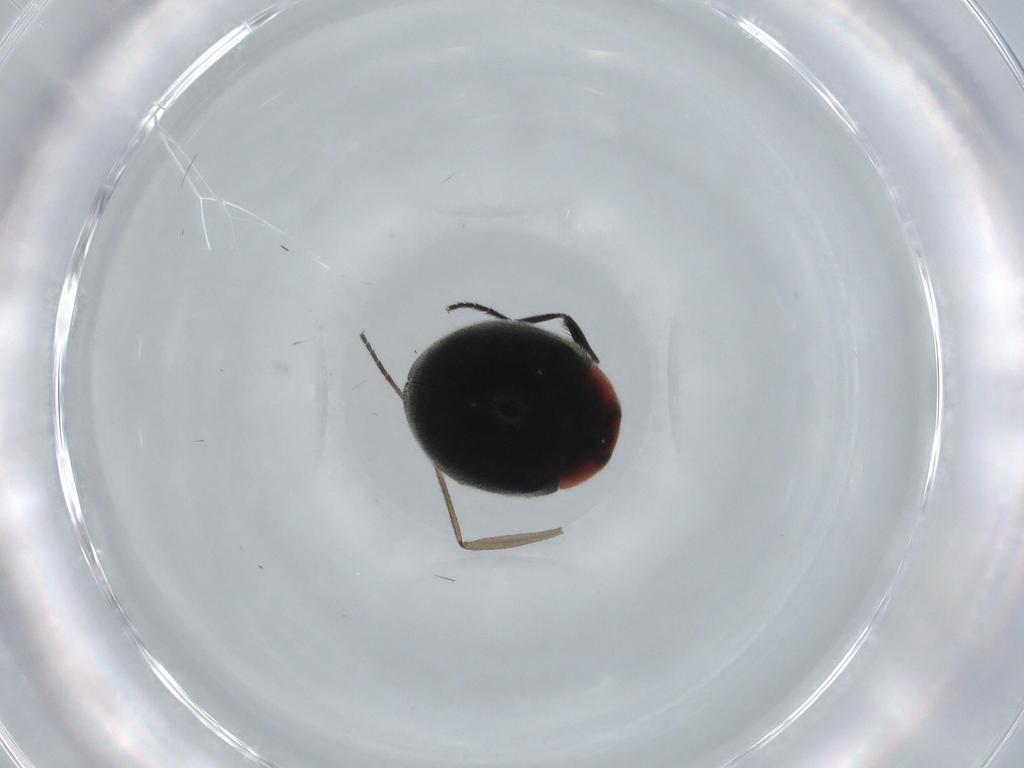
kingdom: Animalia
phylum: Arthropoda
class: Insecta
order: Coleoptera
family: Coccinellidae
